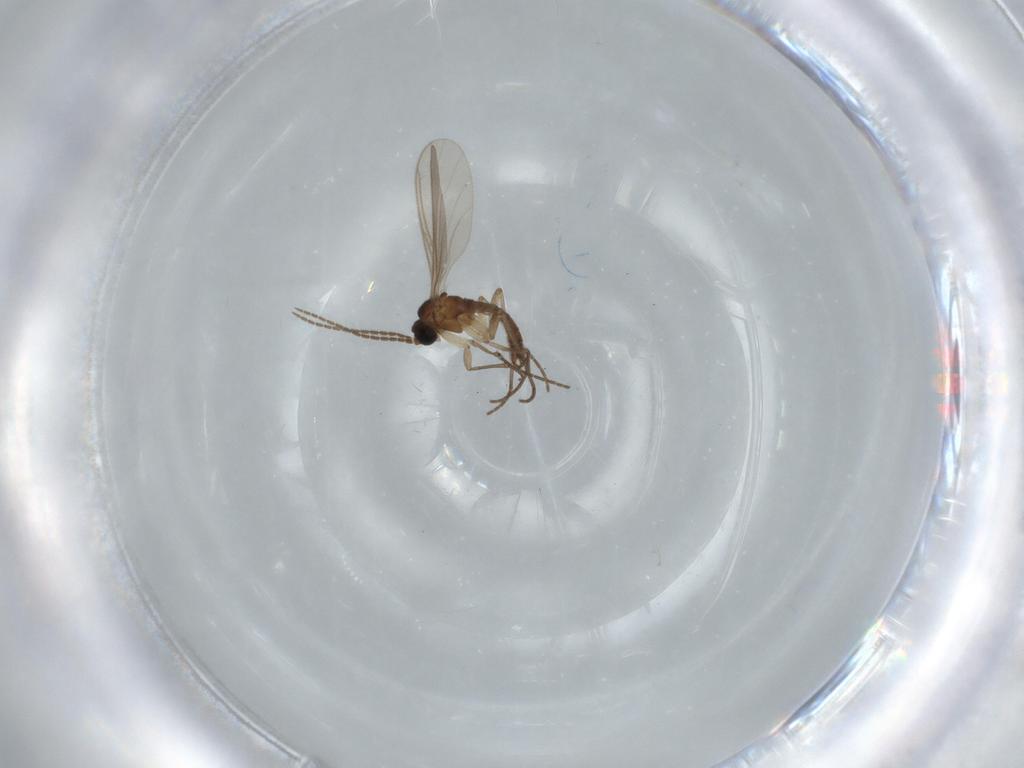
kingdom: Animalia
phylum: Arthropoda
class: Insecta
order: Diptera
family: Sciaridae
